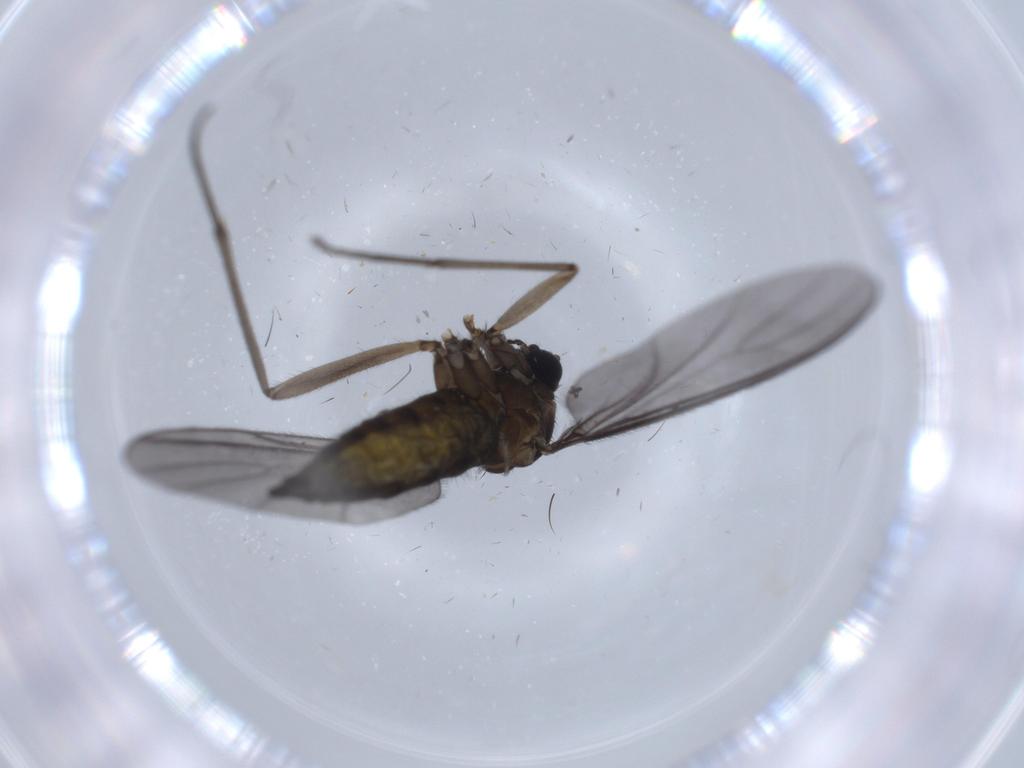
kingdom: Animalia
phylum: Arthropoda
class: Insecta
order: Diptera
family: Sciaridae
